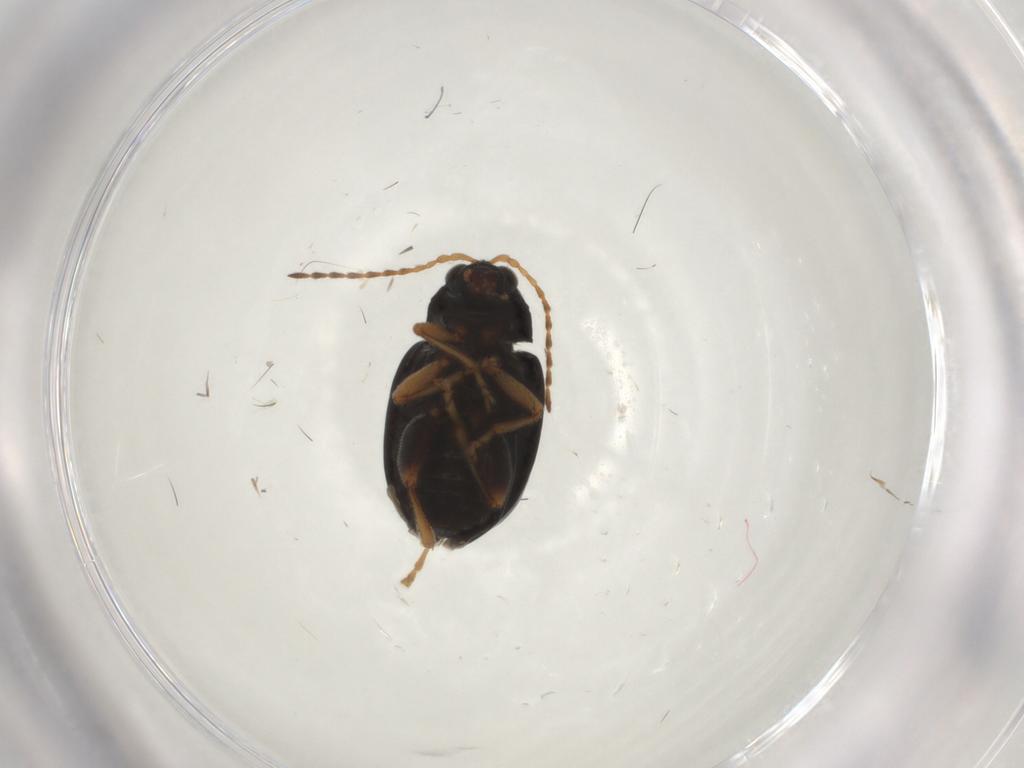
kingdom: Animalia
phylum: Arthropoda
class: Insecta
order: Coleoptera
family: Chrysomelidae
